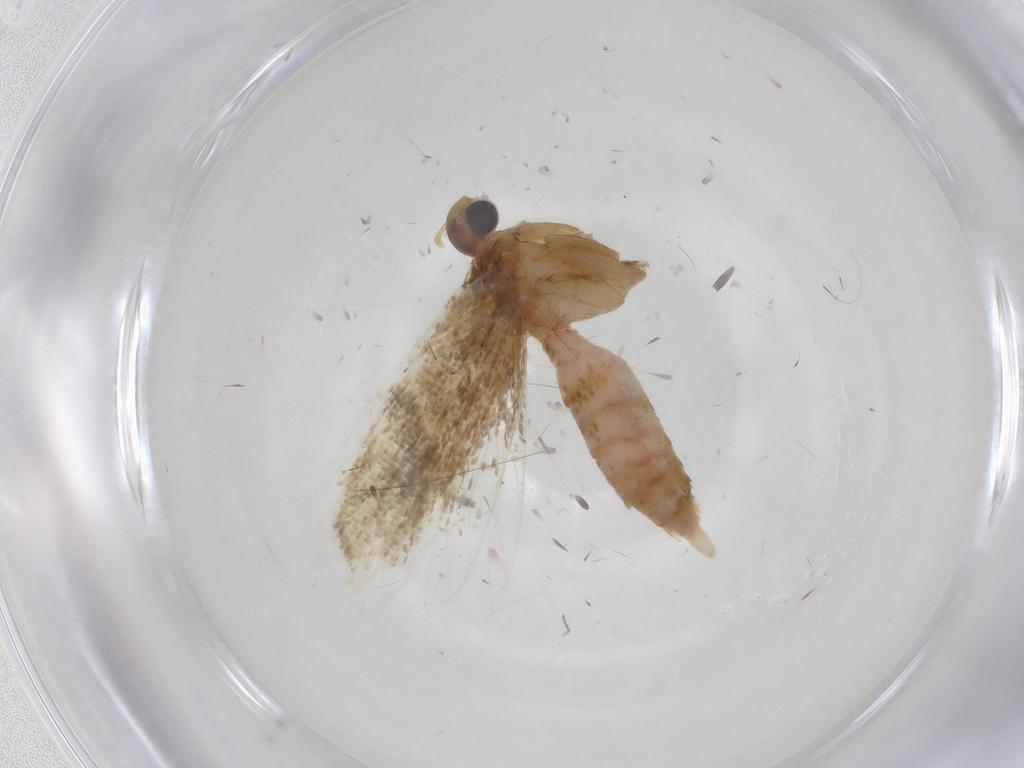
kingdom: Animalia
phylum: Arthropoda
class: Insecta
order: Lepidoptera
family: Gelechiidae
